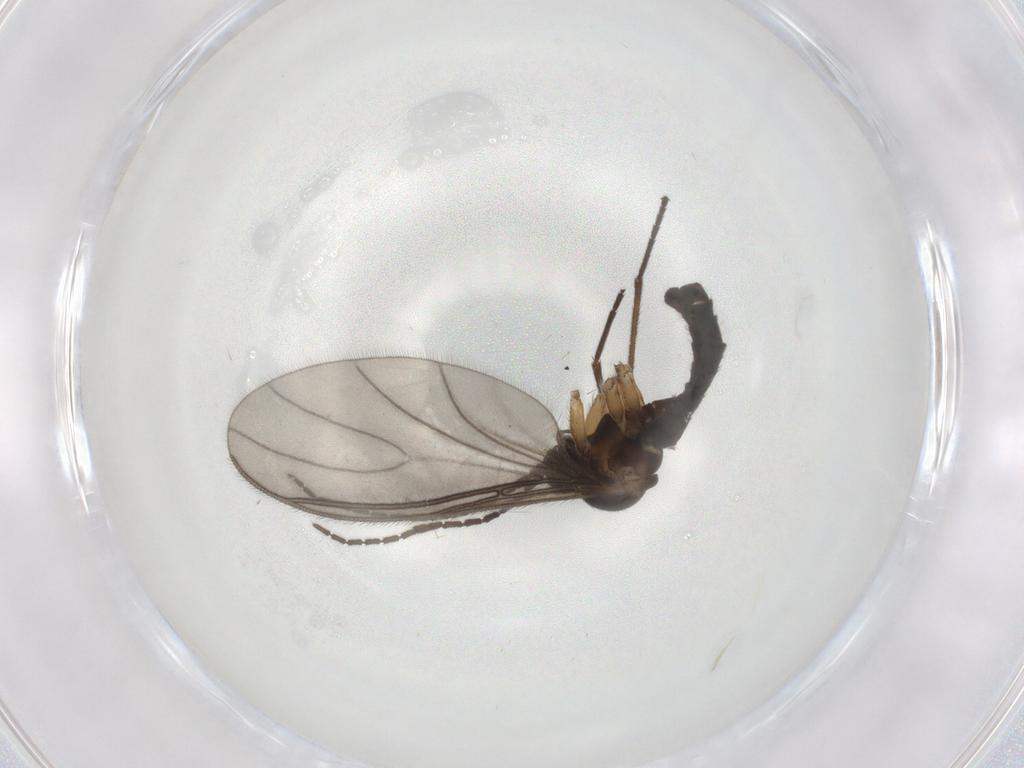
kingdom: Animalia
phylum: Arthropoda
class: Insecta
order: Diptera
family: Sciaridae
